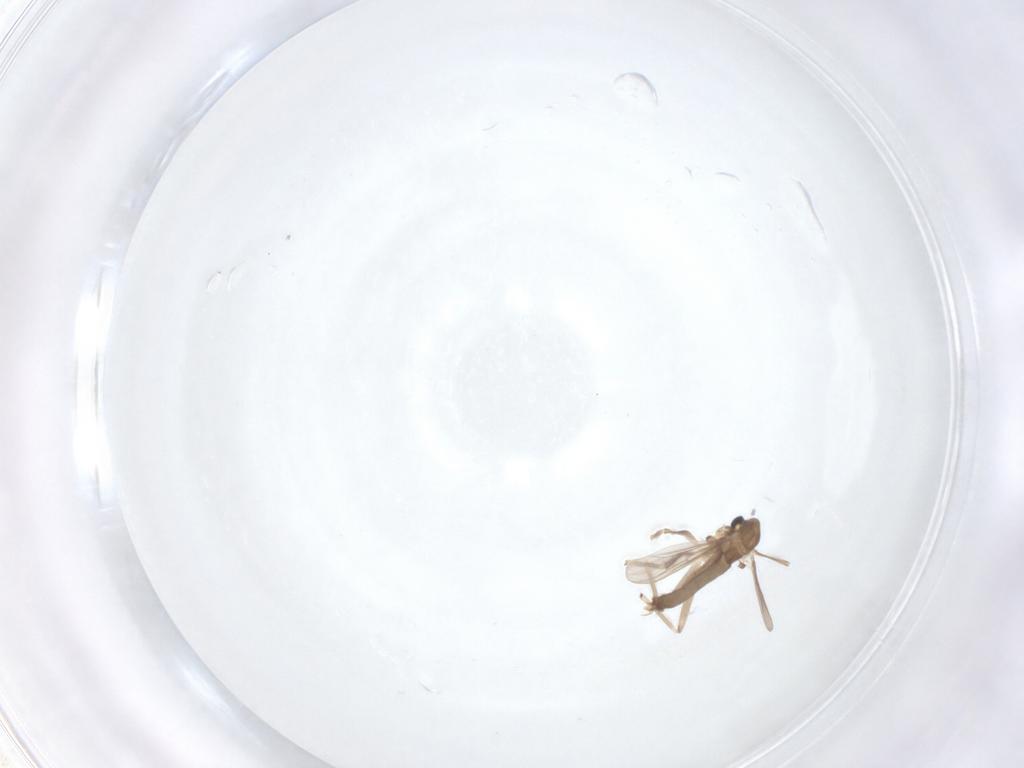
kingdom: Animalia
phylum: Arthropoda
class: Insecta
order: Diptera
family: Chironomidae
